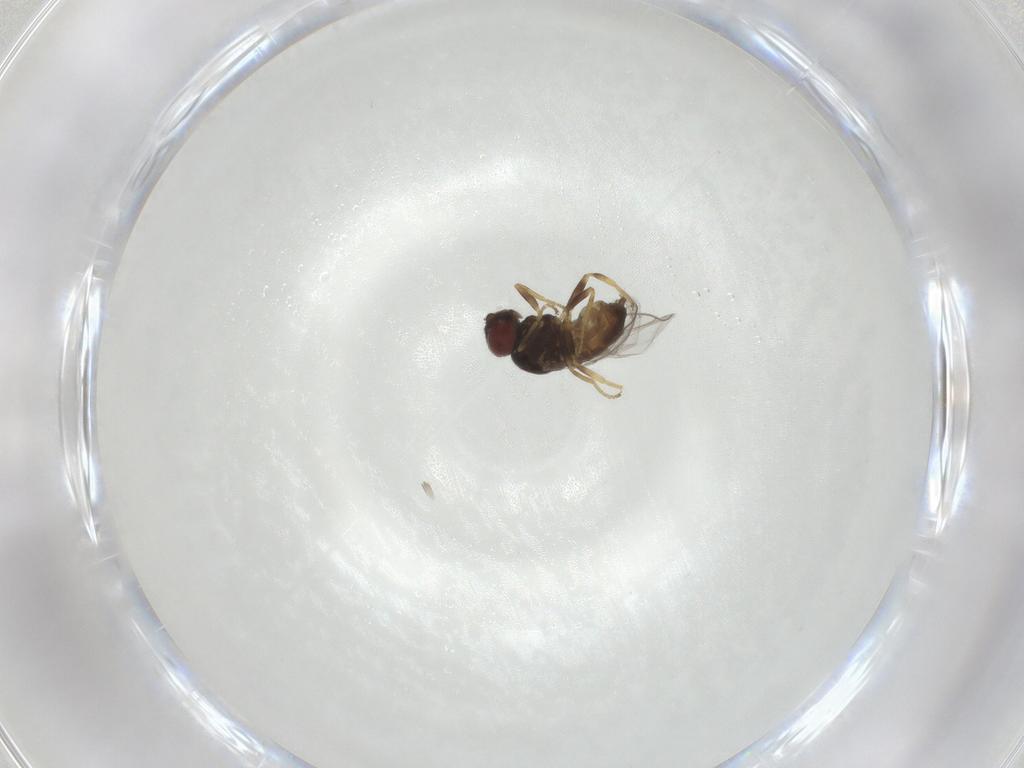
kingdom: Animalia
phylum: Arthropoda
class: Insecta
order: Diptera
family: Chloropidae
